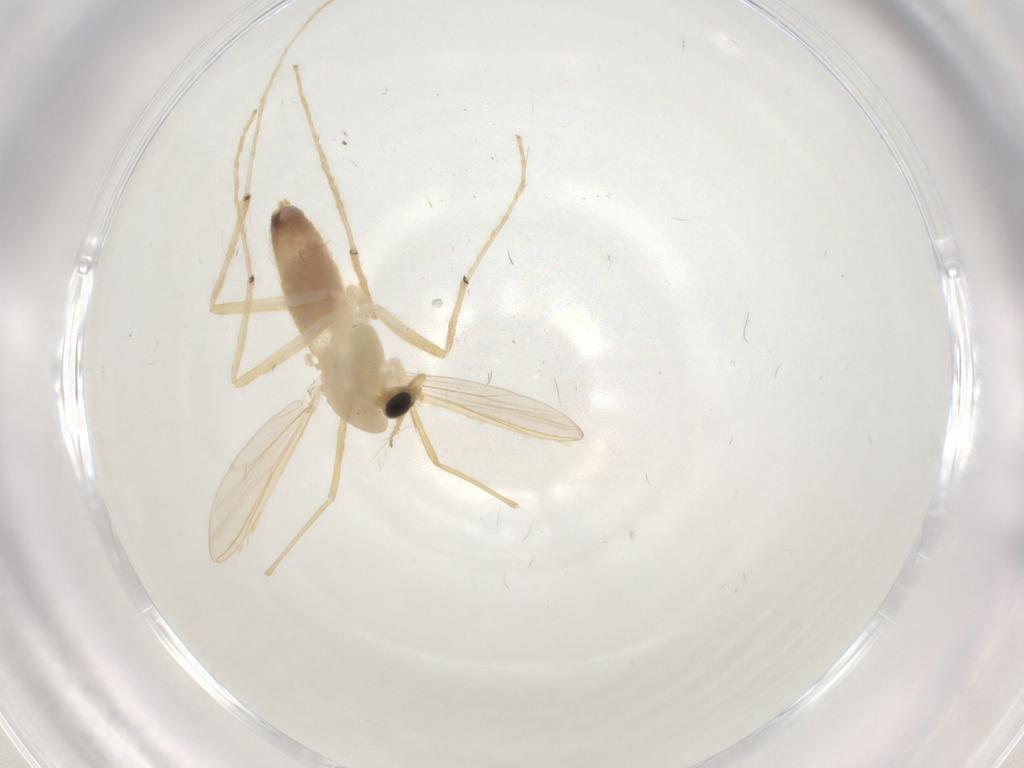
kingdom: Animalia
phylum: Arthropoda
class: Insecta
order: Diptera
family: Chironomidae
